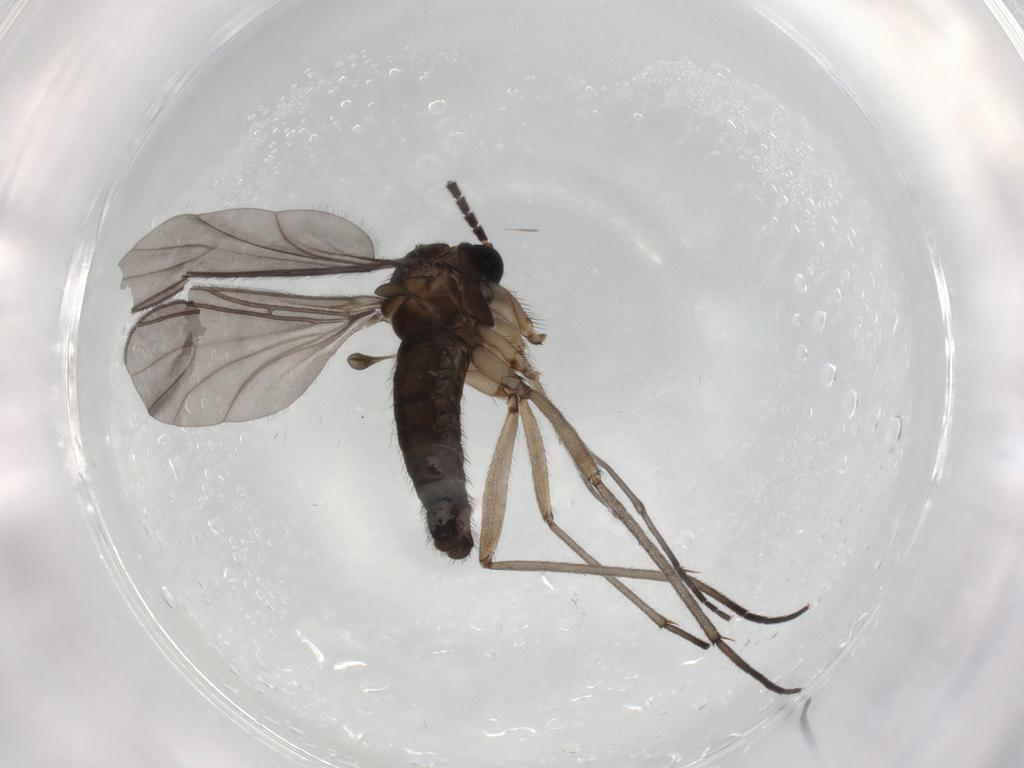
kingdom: Animalia
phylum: Arthropoda
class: Insecta
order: Diptera
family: Sciaridae
